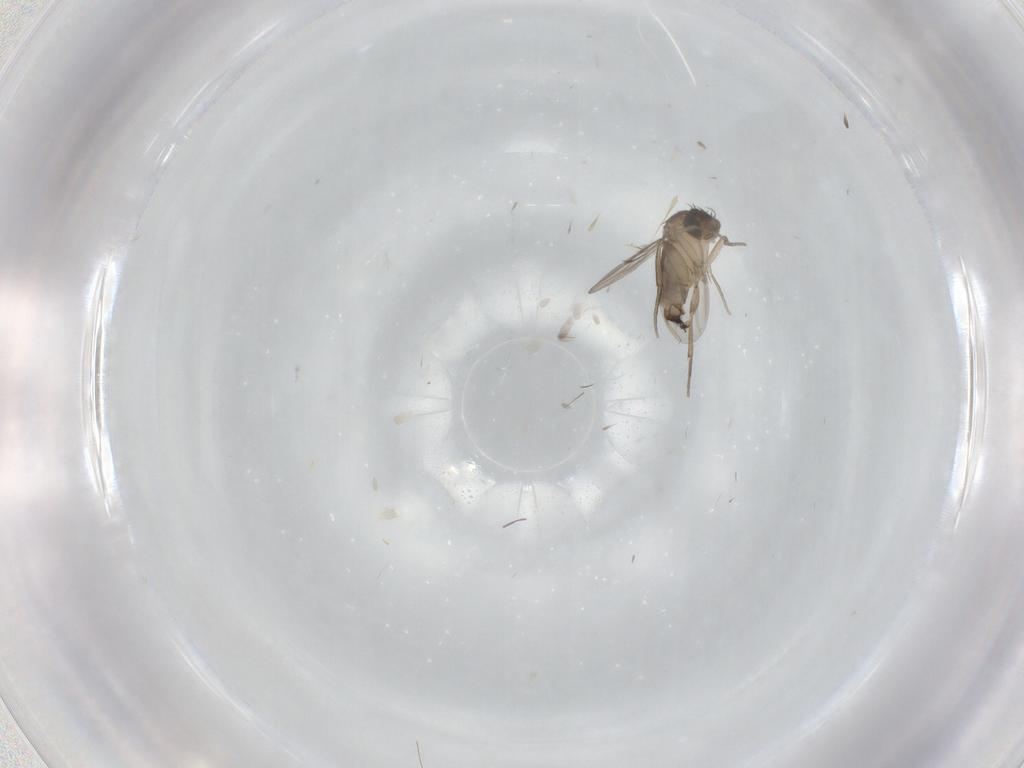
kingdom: Animalia
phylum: Arthropoda
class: Insecta
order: Diptera
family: Phoridae
